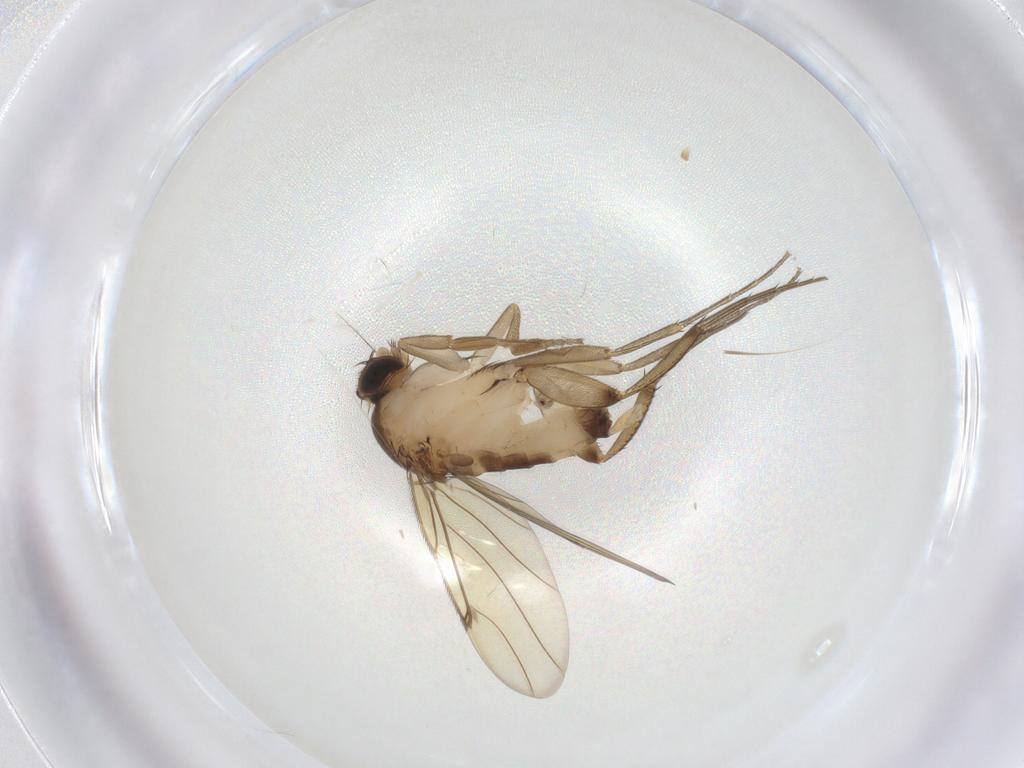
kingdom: Animalia
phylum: Arthropoda
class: Insecta
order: Diptera
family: Phoridae
